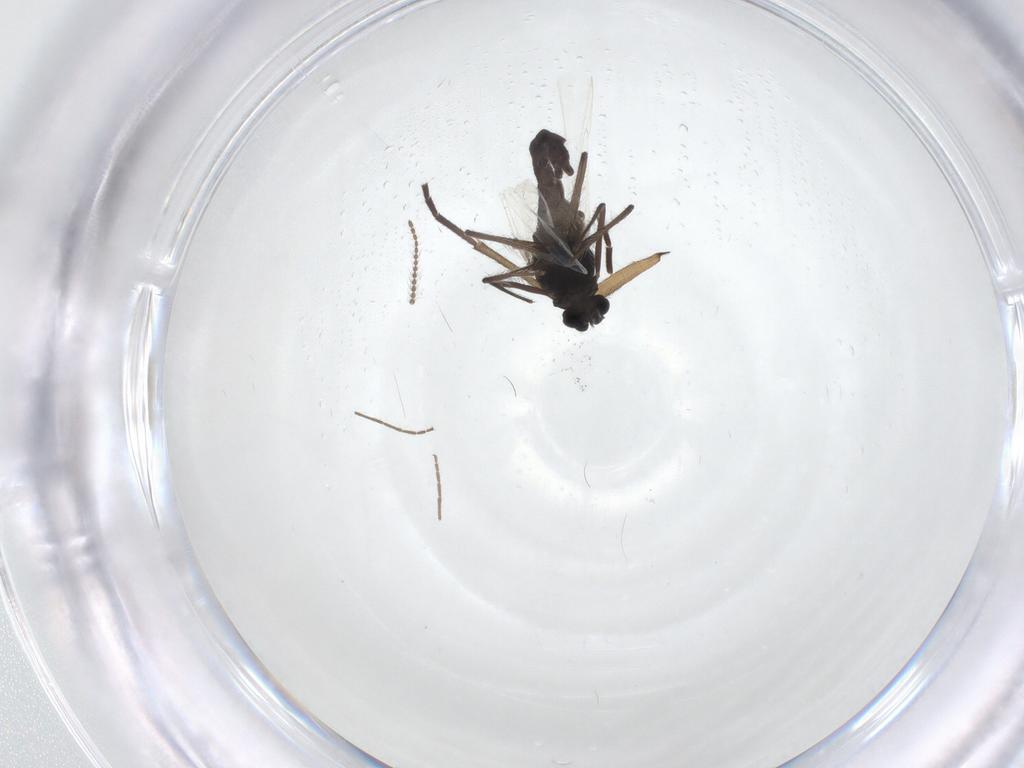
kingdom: Animalia
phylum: Arthropoda
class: Insecta
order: Diptera
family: Sciaridae
